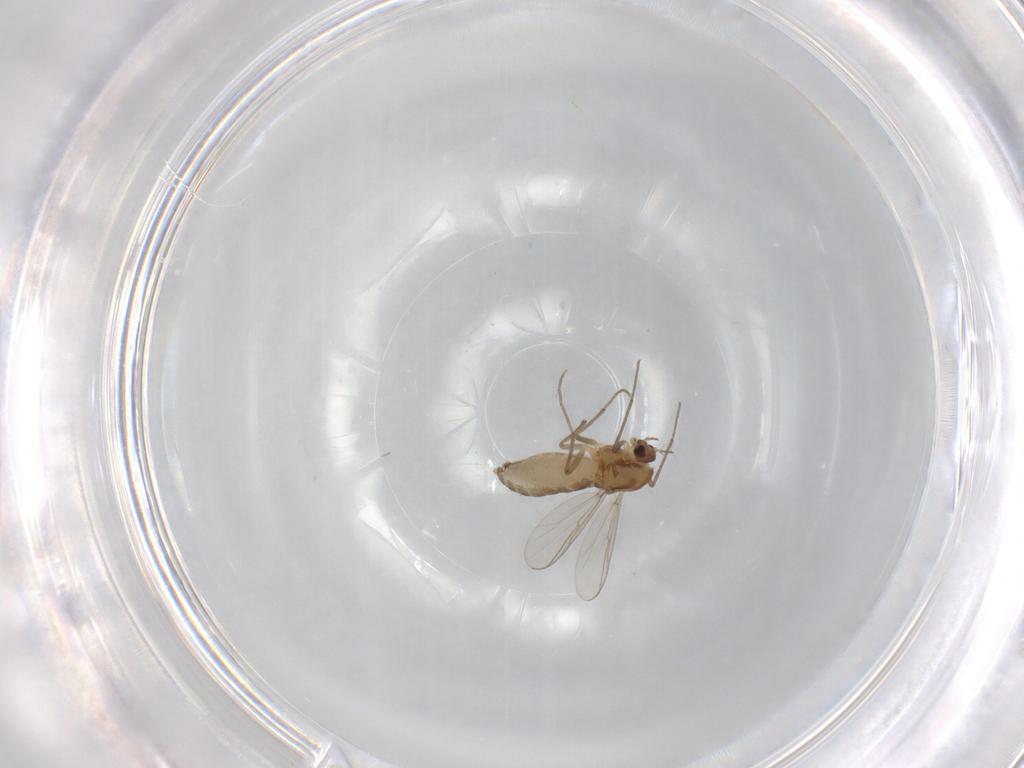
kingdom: Animalia
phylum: Arthropoda
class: Insecta
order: Diptera
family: Chironomidae
